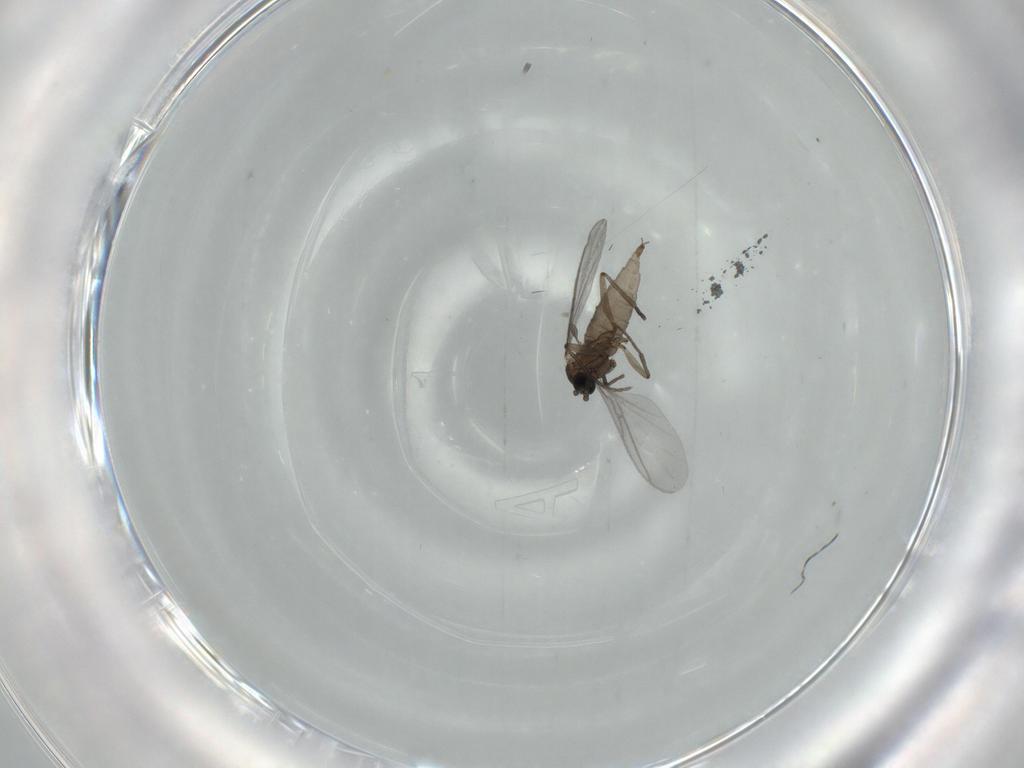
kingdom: Animalia
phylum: Arthropoda
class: Insecta
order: Diptera
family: Sciaridae
